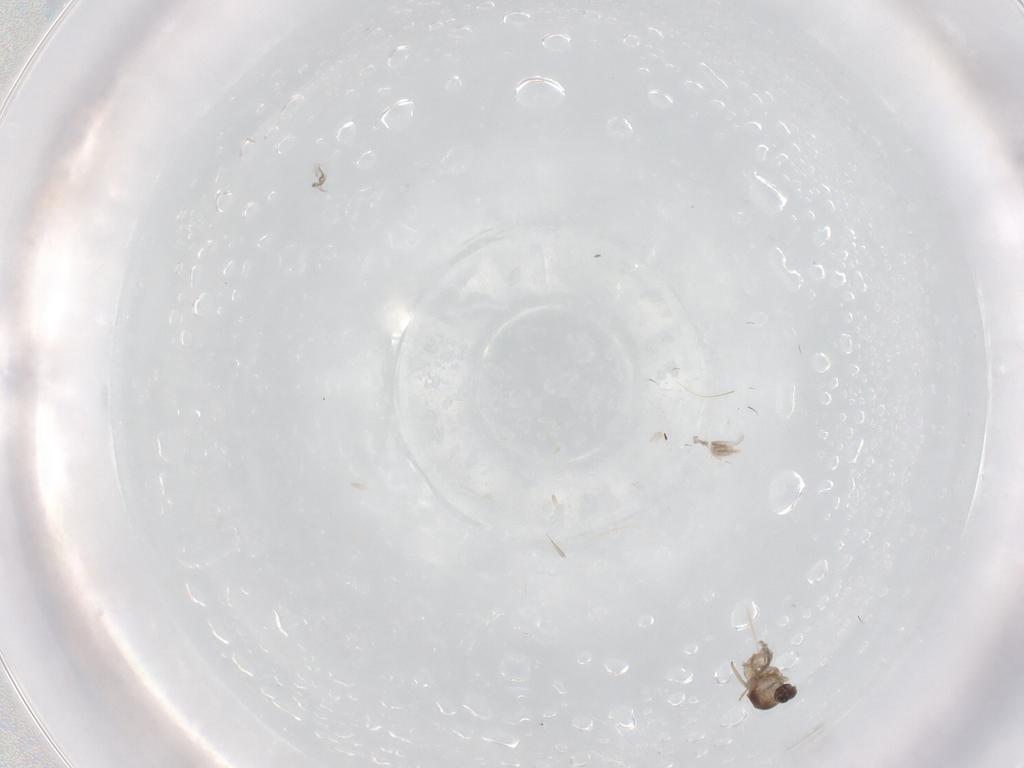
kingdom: Animalia
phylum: Arthropoda
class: Insecta
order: Diptera
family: Cecidomyiidae
